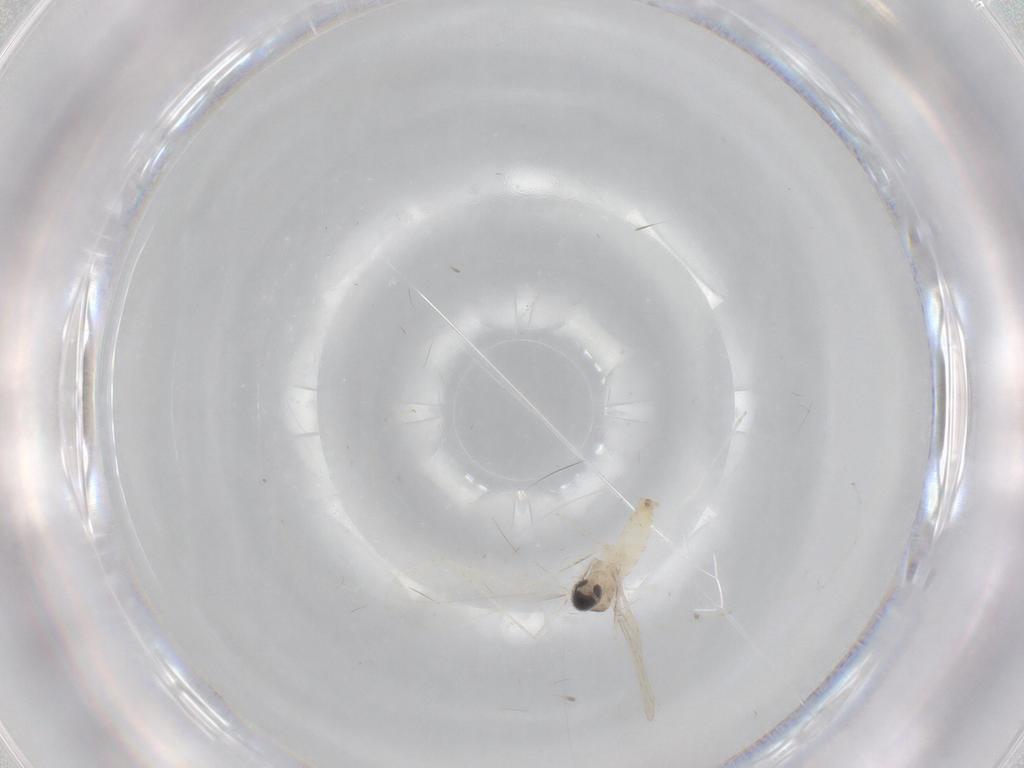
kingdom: Animalia
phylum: Arthropoda
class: Insecta
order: Diptera
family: Cecidomyiidae
